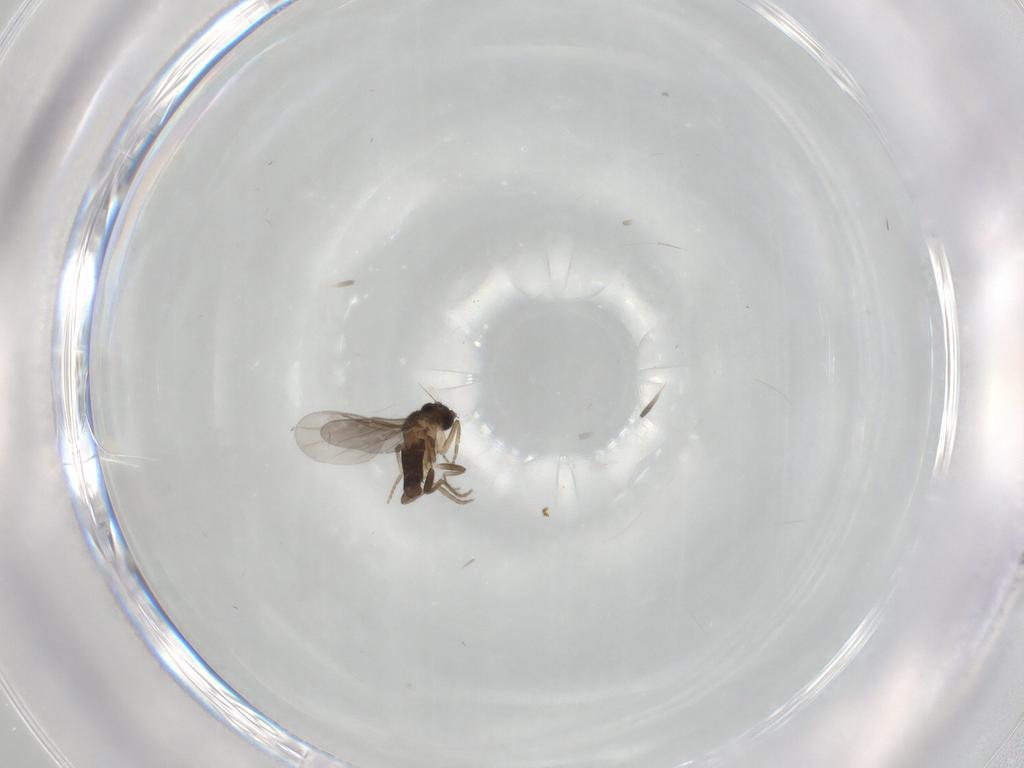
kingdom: Animalia
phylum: Arthropoda
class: Insecta
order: Diptera
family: Phoridae
